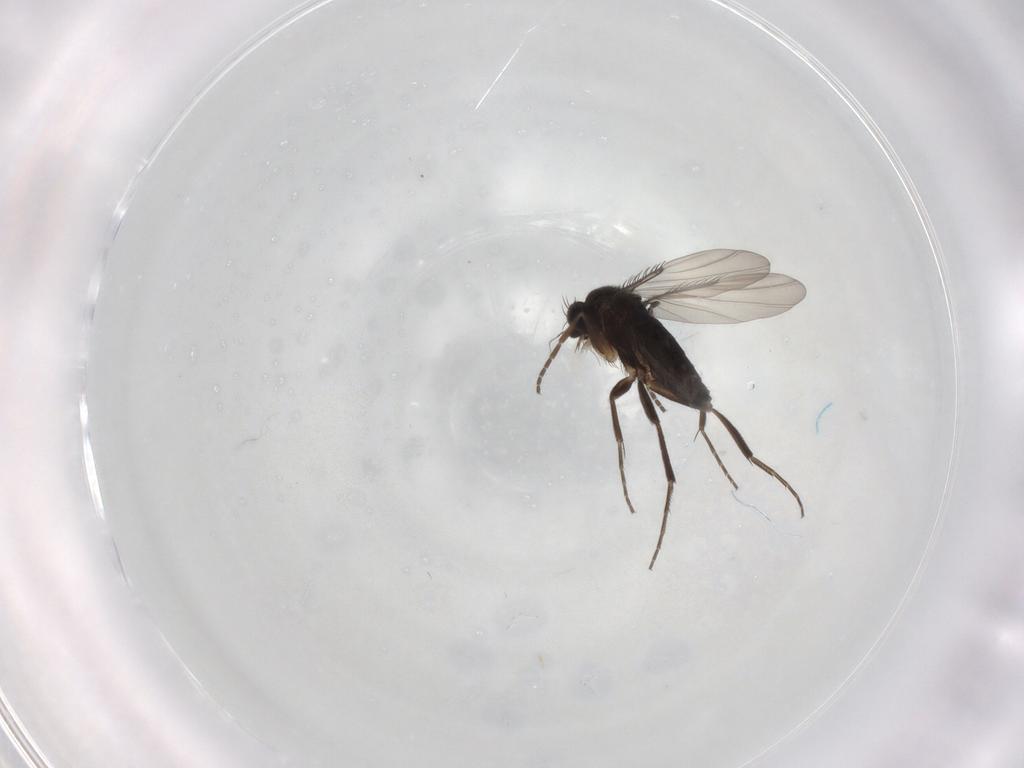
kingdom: Animalia
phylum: Arthropoda
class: Insecta
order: Diptera
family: Phoridae
